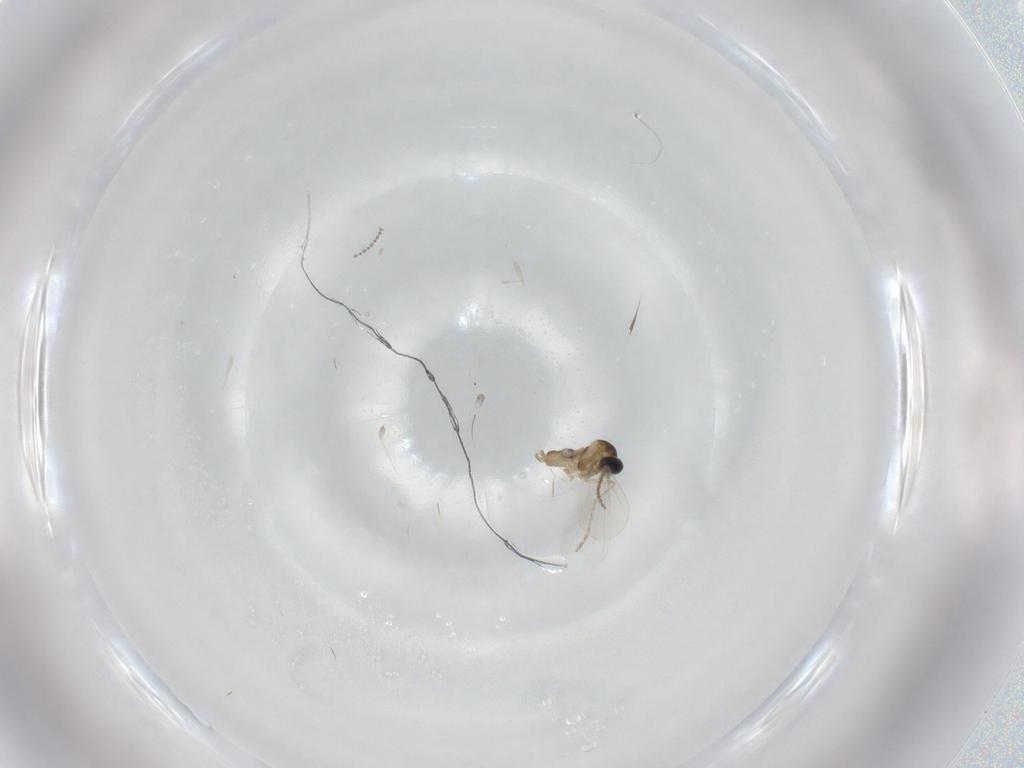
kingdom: Animalia
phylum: Arthropoda
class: Insecta
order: Diptera
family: Cecidomyiidae
